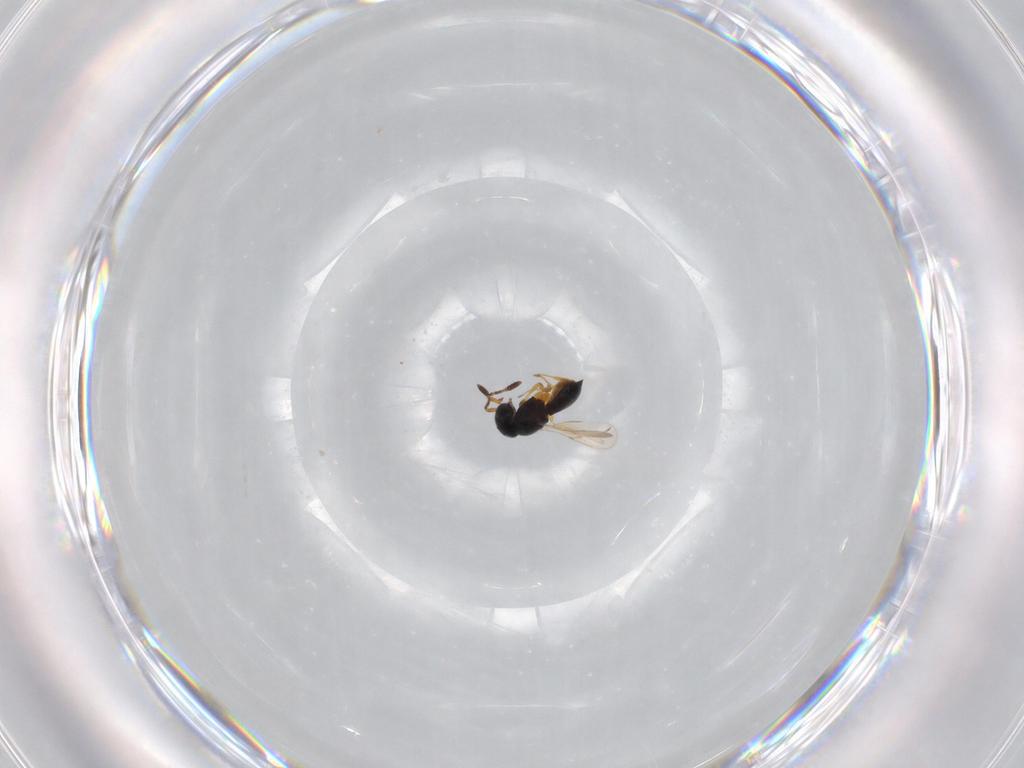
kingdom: Animalia
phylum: Arthropoda
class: Insecta
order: Hymenoptera
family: Scelionidae
